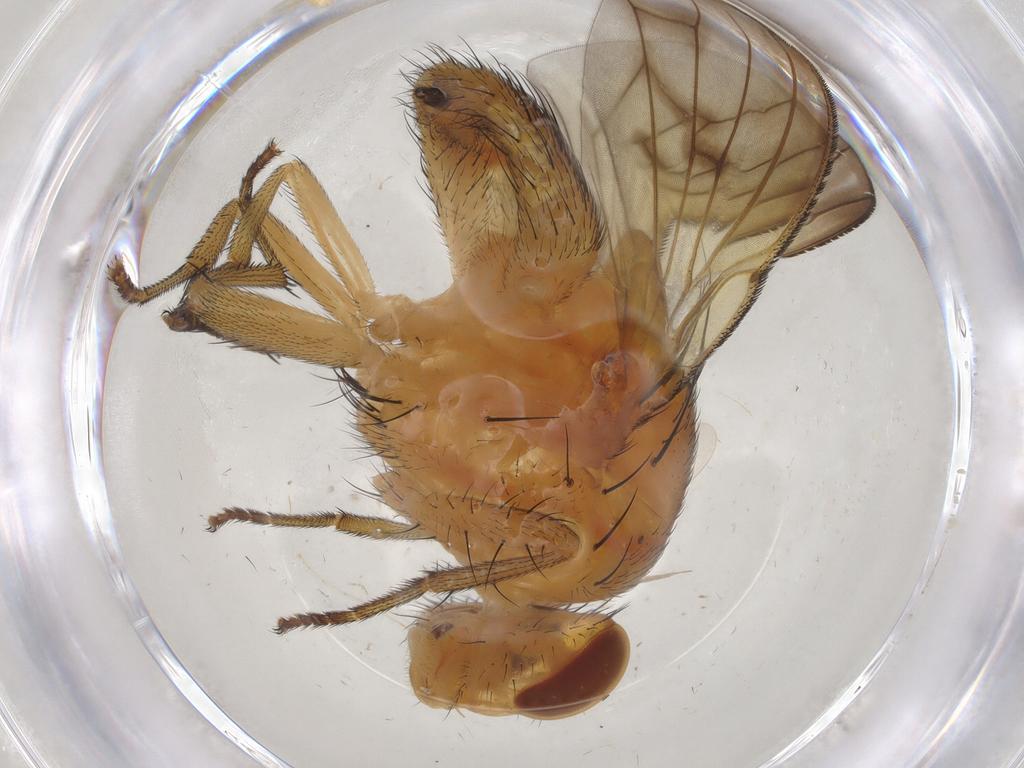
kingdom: Animalia
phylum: Arthropoda
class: Insecta
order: Diptera
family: Lauxaniidae
